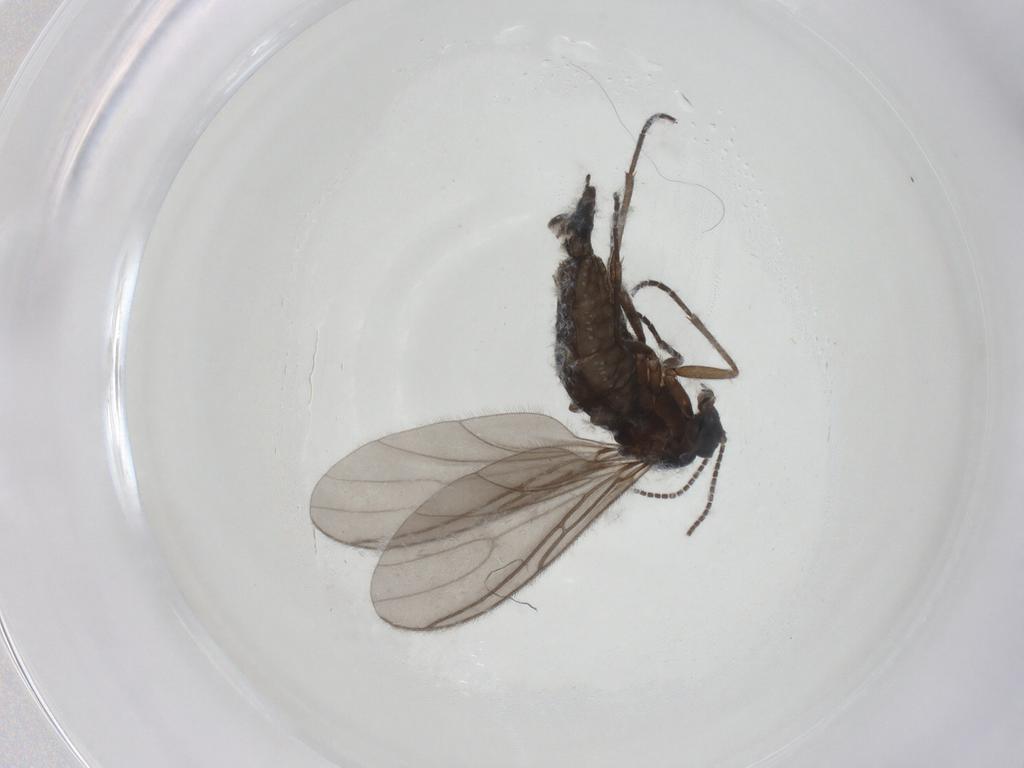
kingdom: Animalia
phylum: Arthropoda
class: Insecta
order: Diptera
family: Sciaridae
